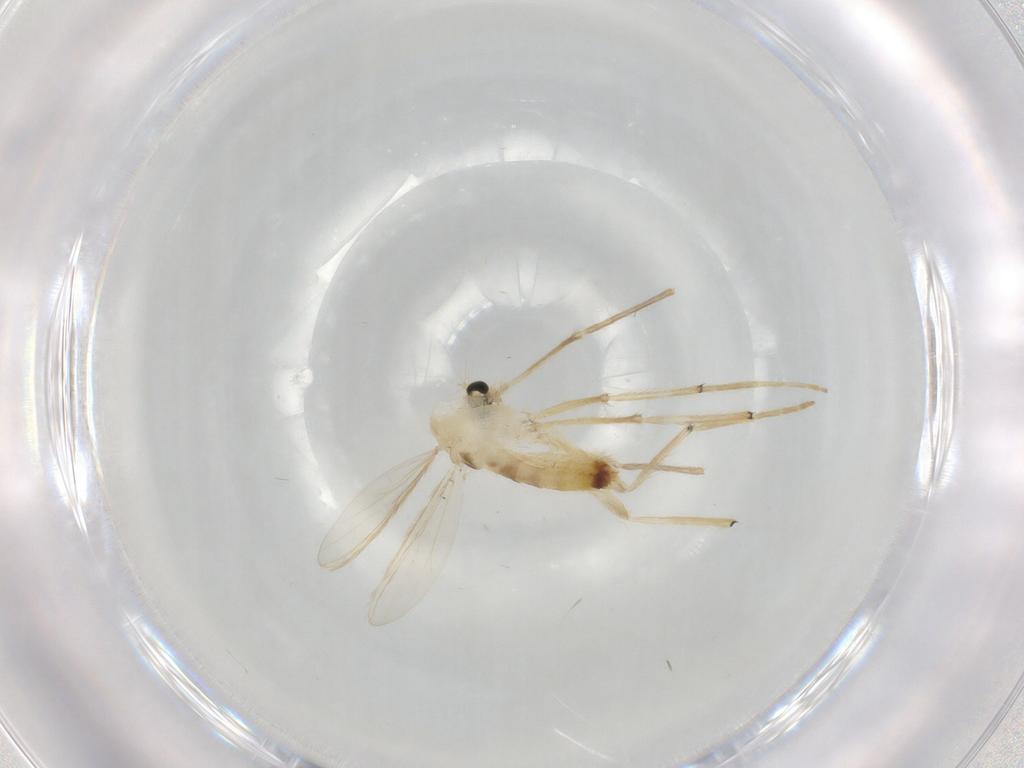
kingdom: Animalia
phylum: Arthropoda
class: Insecta
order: Diptera
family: Chironomidae
